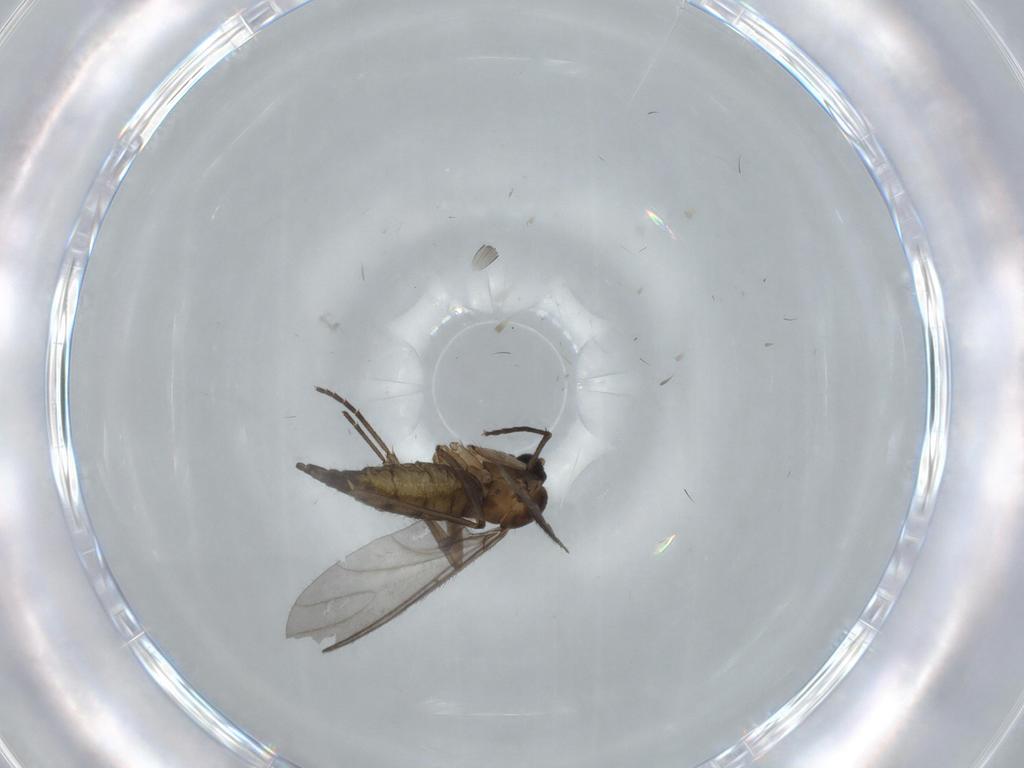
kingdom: Animalia
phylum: Arthropoda
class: Insecta
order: Diptera
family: Sciaridae
